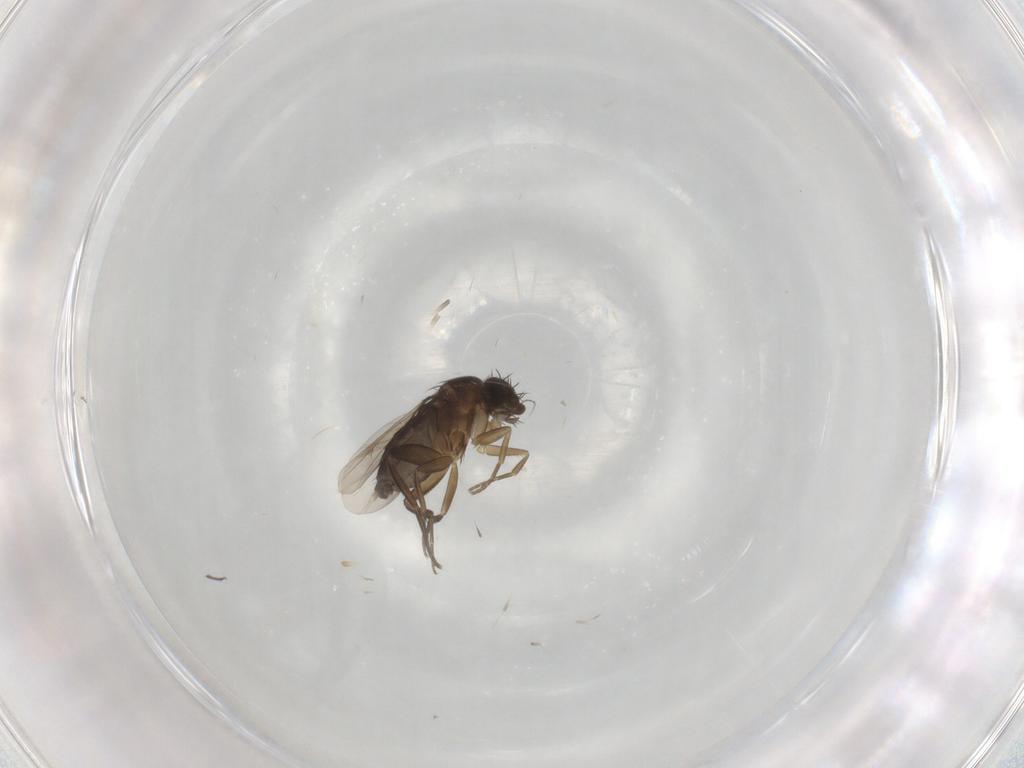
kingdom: Animalia
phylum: Arthropoda
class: Insecta
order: Diptera
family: Phoridae
